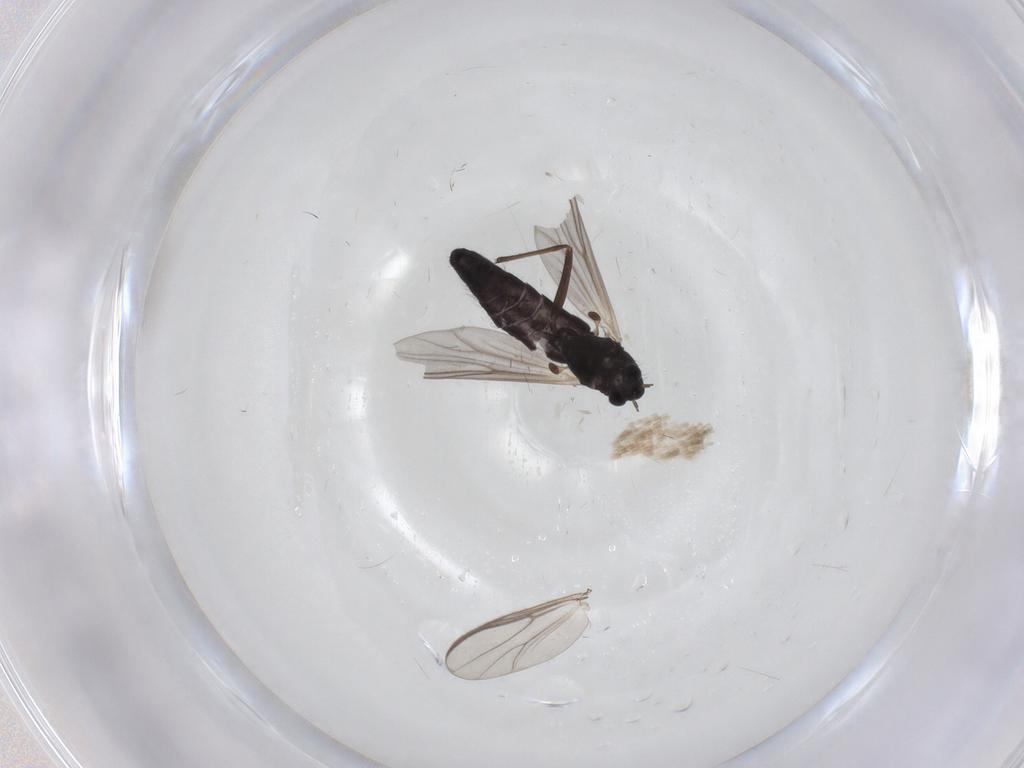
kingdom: Animalia
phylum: Arthropoda
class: Insecta
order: Diptera
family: Chironomidae
